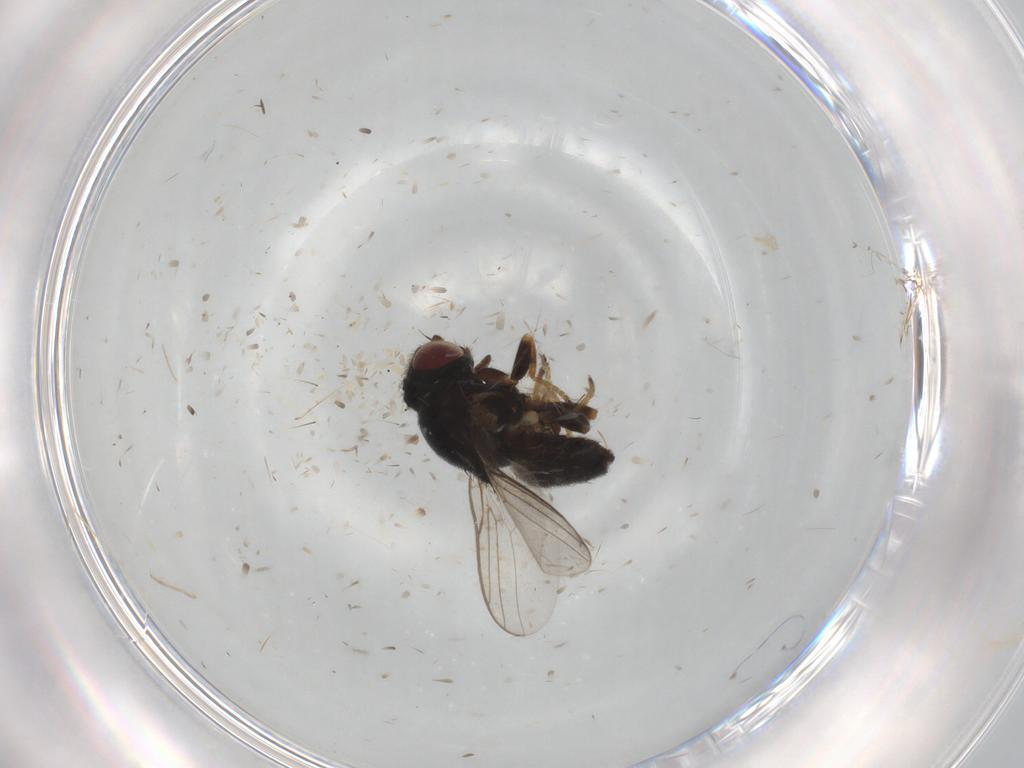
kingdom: Animalia
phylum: Arthropoda
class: Insecta
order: Diptera
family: Chloropidae
